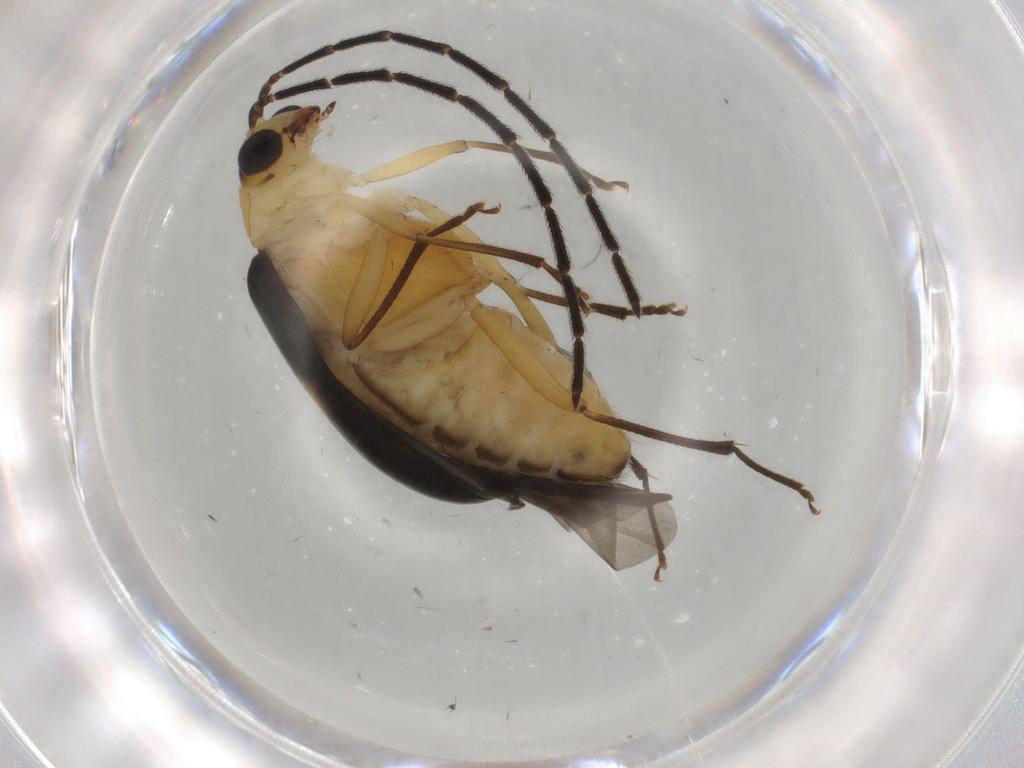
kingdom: Animalia
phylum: Arthropoda
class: Insecta
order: Coleoptera
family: Chrysomelidae
